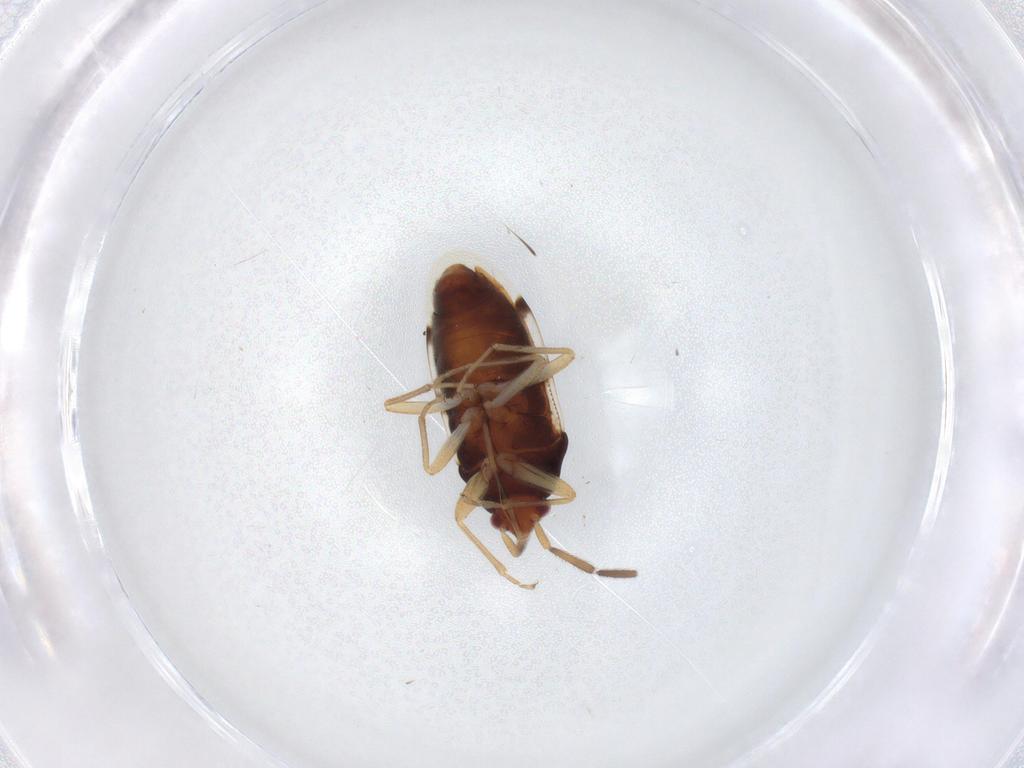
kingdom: Animalia
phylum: Arthropoda
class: Insecta
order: Hemiptera
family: Rhyparochromidae
